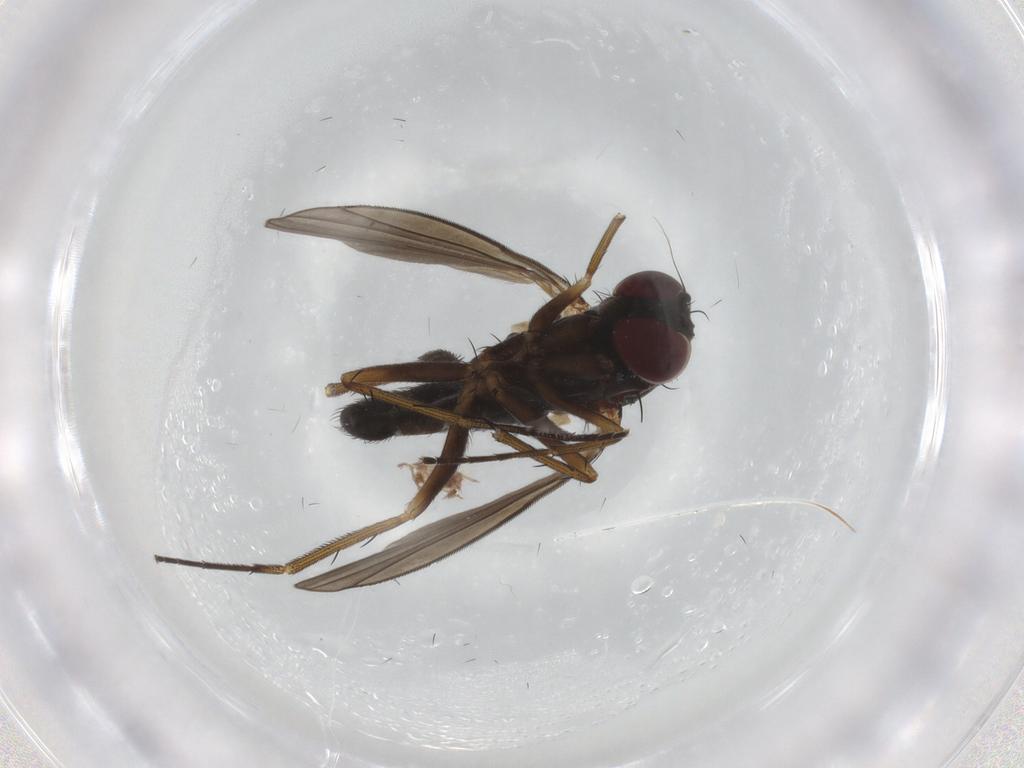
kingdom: Animalia
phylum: Arthropoda
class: Insecta
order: Diptera
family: Dolichopodidae
